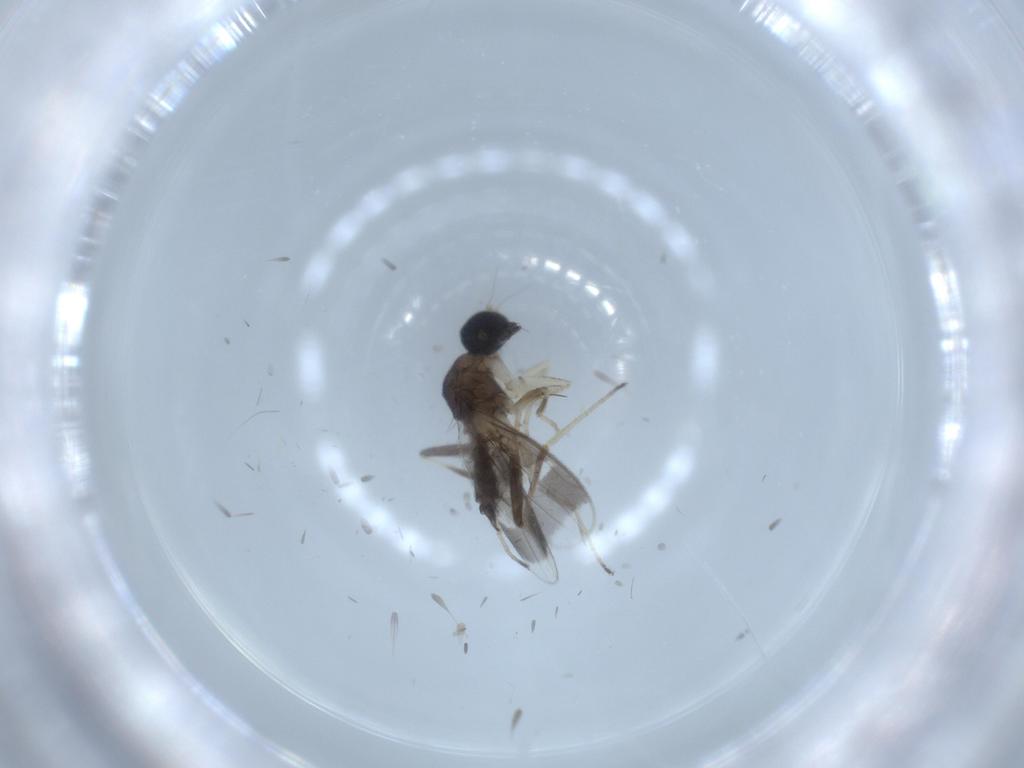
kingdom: Animalia
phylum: Arthropoda
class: Insecta
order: Diptera
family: Hybotidae
